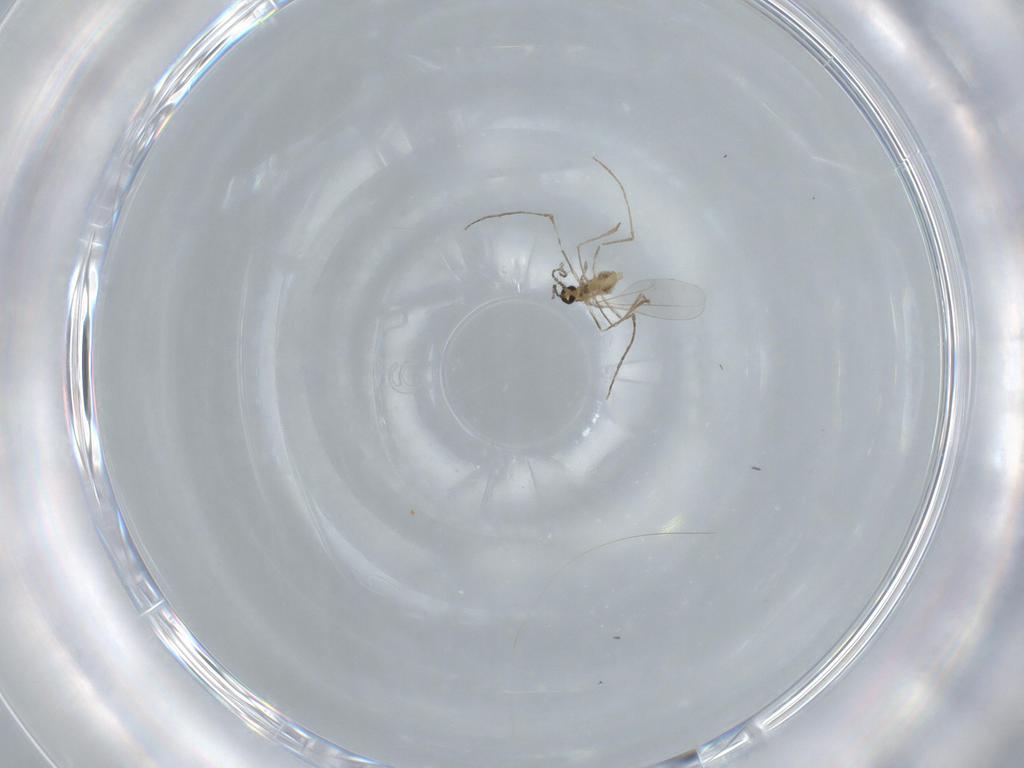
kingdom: Animalia
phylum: Arthropoda
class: Insecta
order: Diptera
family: Cecidomyiidae
